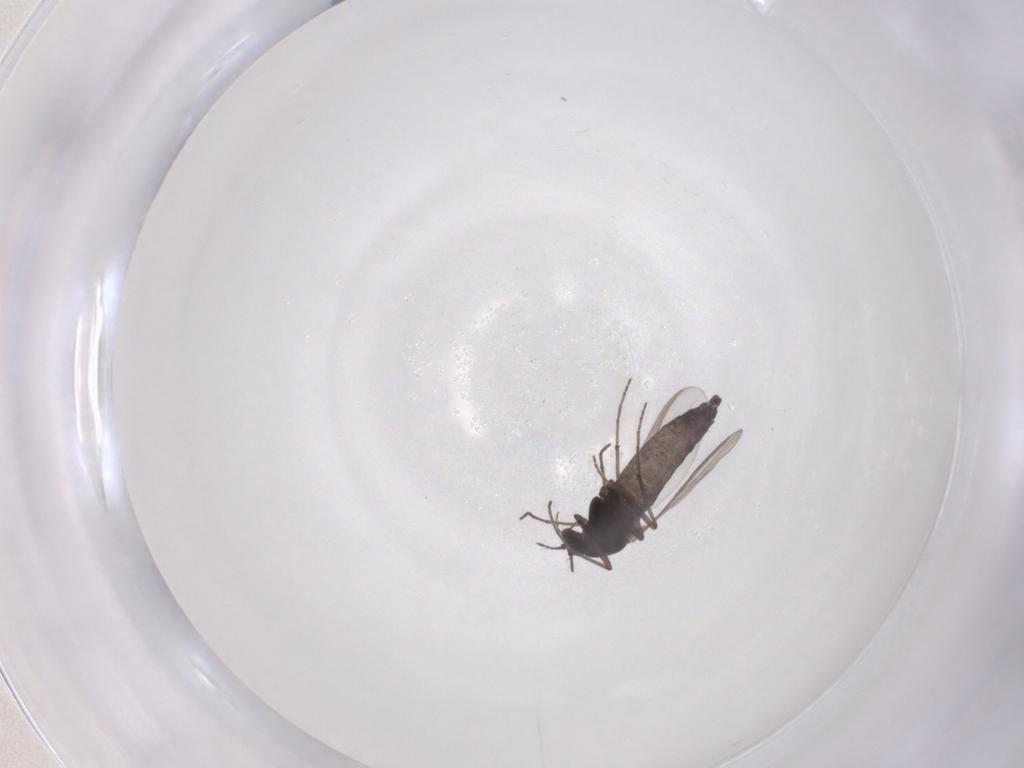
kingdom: Animalia
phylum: Arthropoda
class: Insecta
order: Diptera
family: Ceratopogonidae
